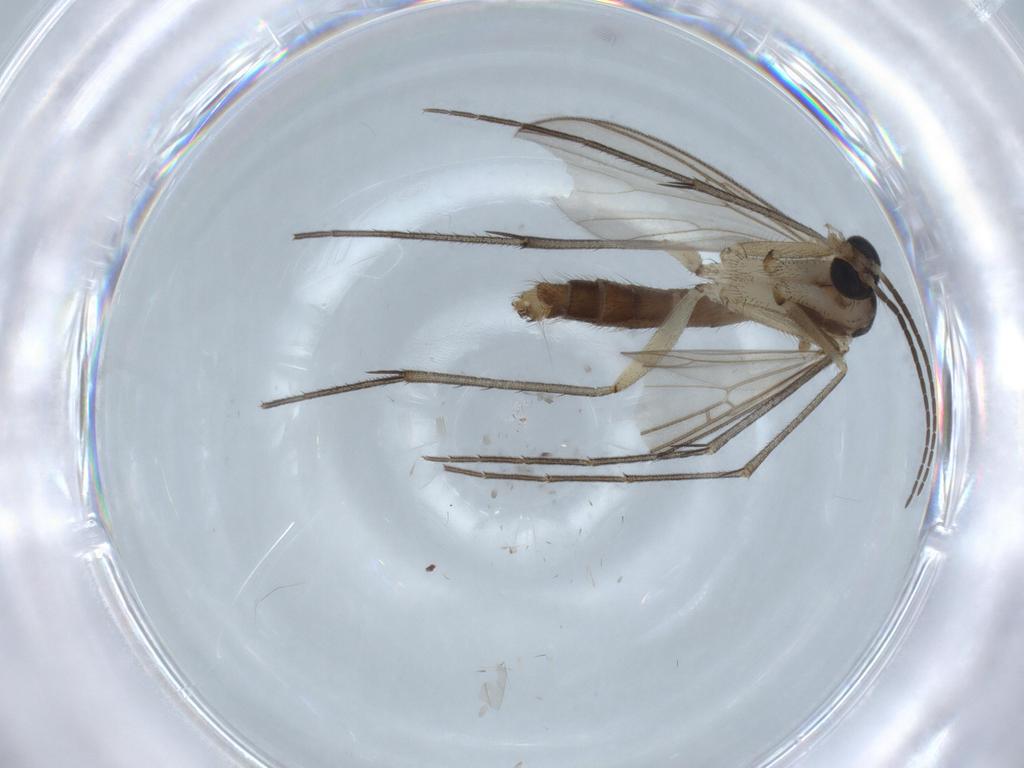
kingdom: Animalia
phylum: Arthropoda
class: Insecta
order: Diptera
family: Mycetophilidae
